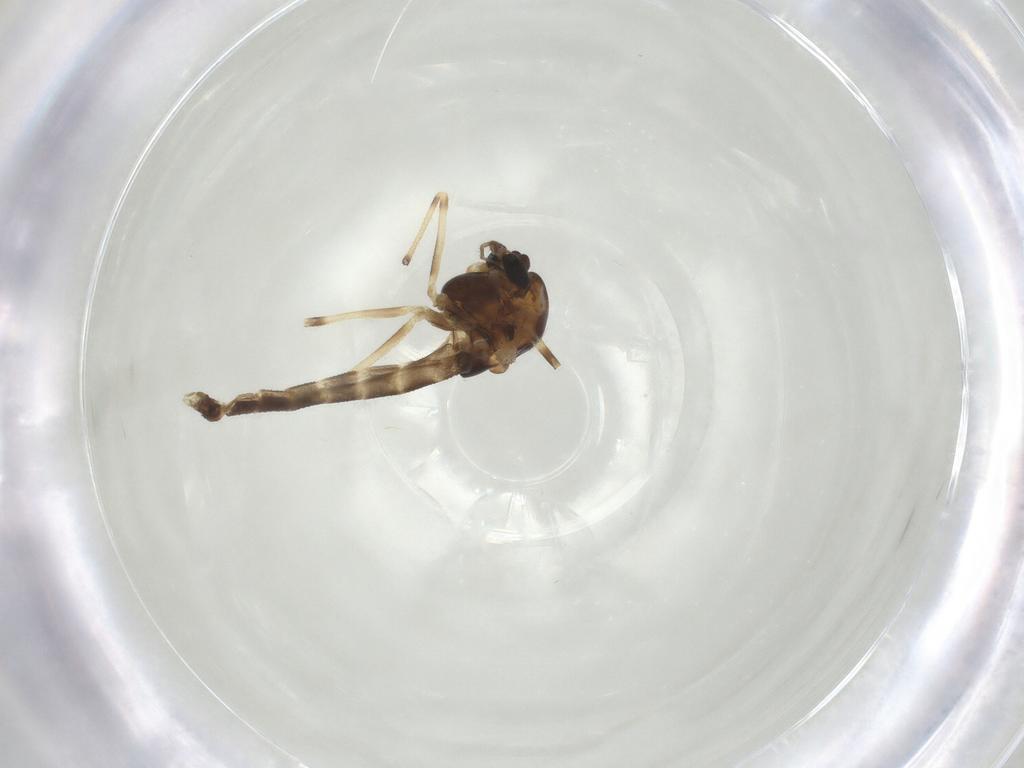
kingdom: Animalia
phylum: Arthropoda
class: Insecta
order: Diptera
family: Chironomidae
